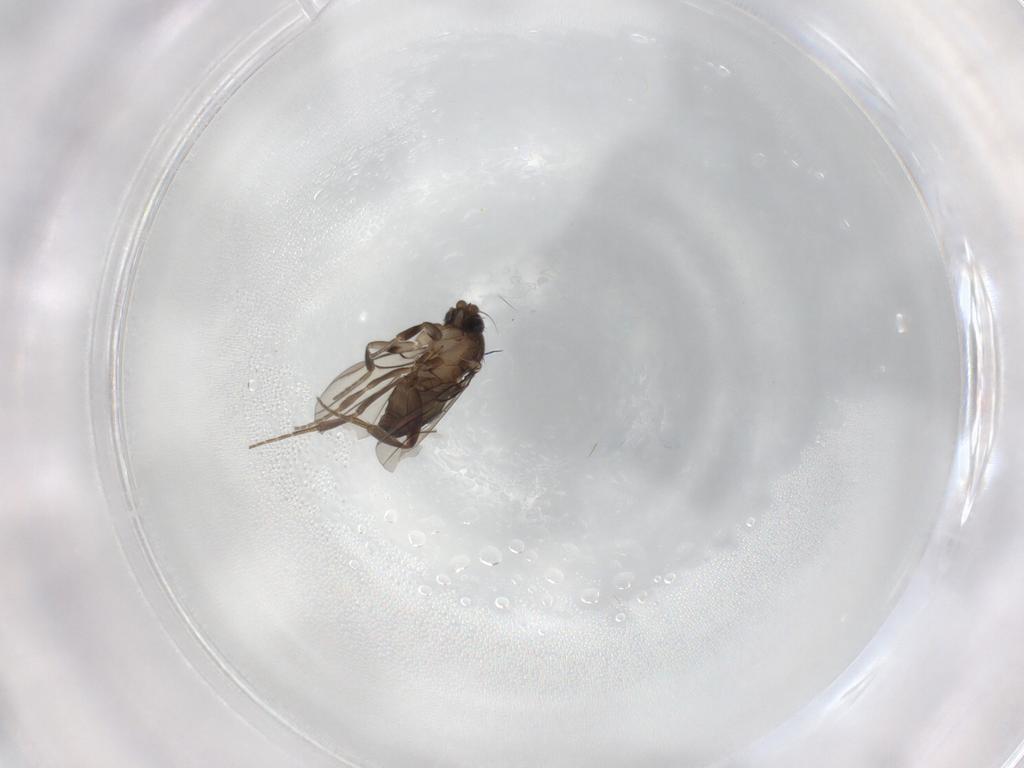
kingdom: Animalia
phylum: Arthropoda
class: Insecta
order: Diptera
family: Phoridae
